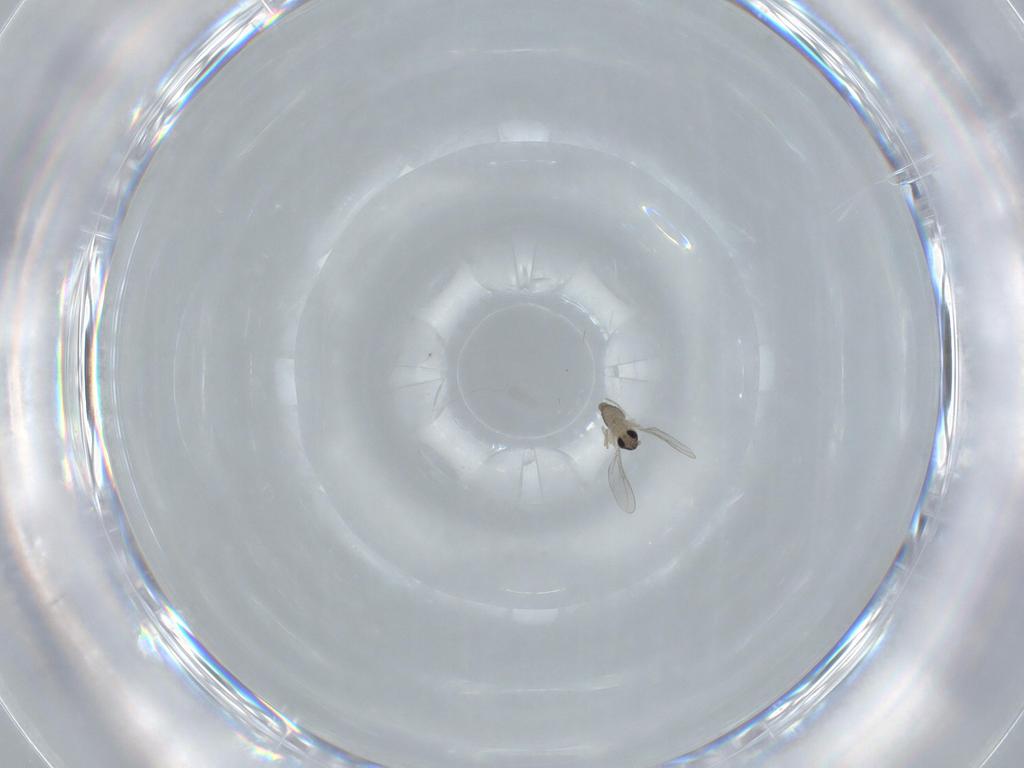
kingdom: Animalia
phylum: Arthropoda
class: Insecta
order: Diptera
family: Cecidomyiidae
